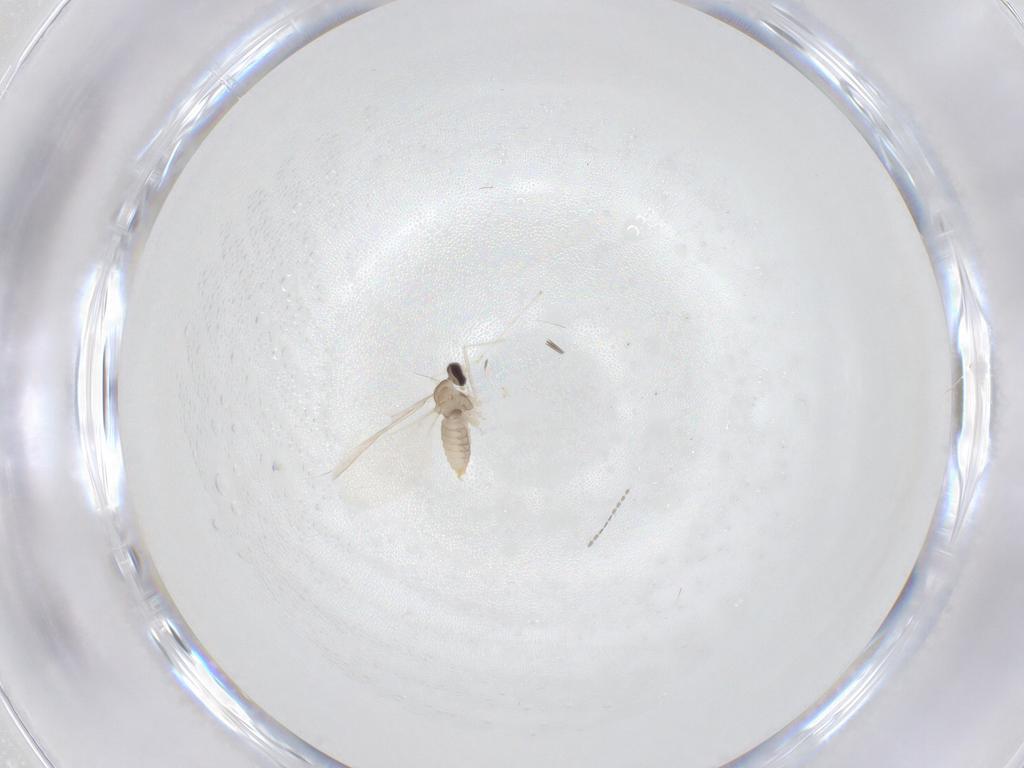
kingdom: Animalia
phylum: Arthropoda
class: Insecta
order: Diptera
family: Cecidomyiidae
